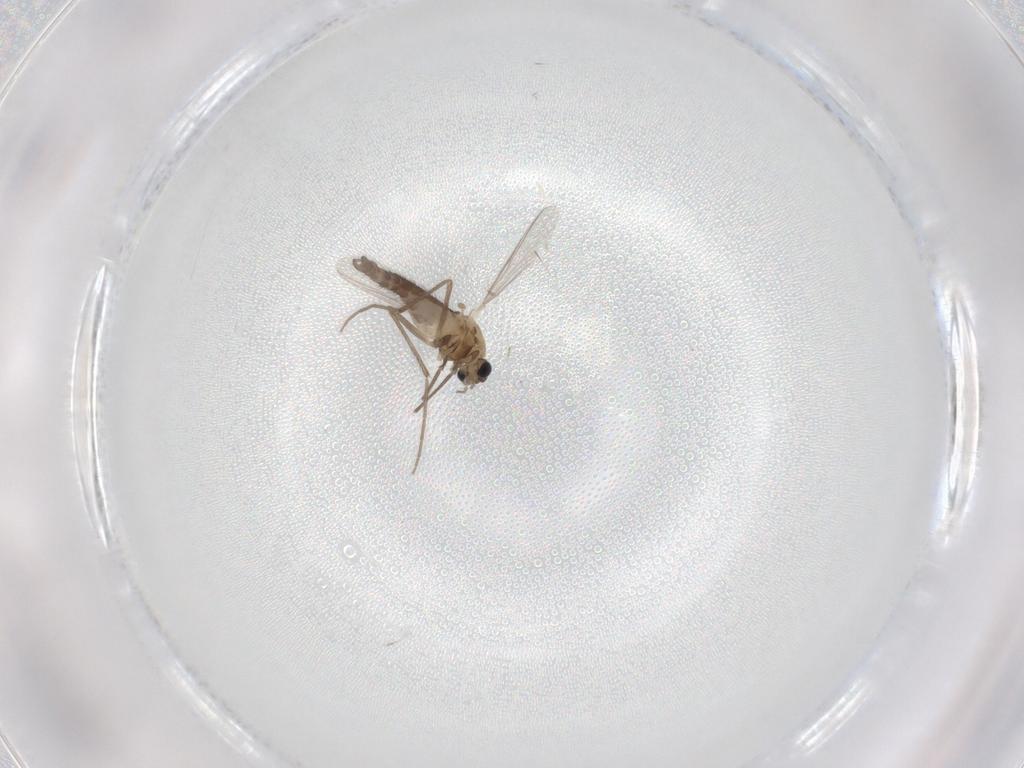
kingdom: Animalia
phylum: Arthropoda
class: Insecta
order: Diptera
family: Chironomidae
